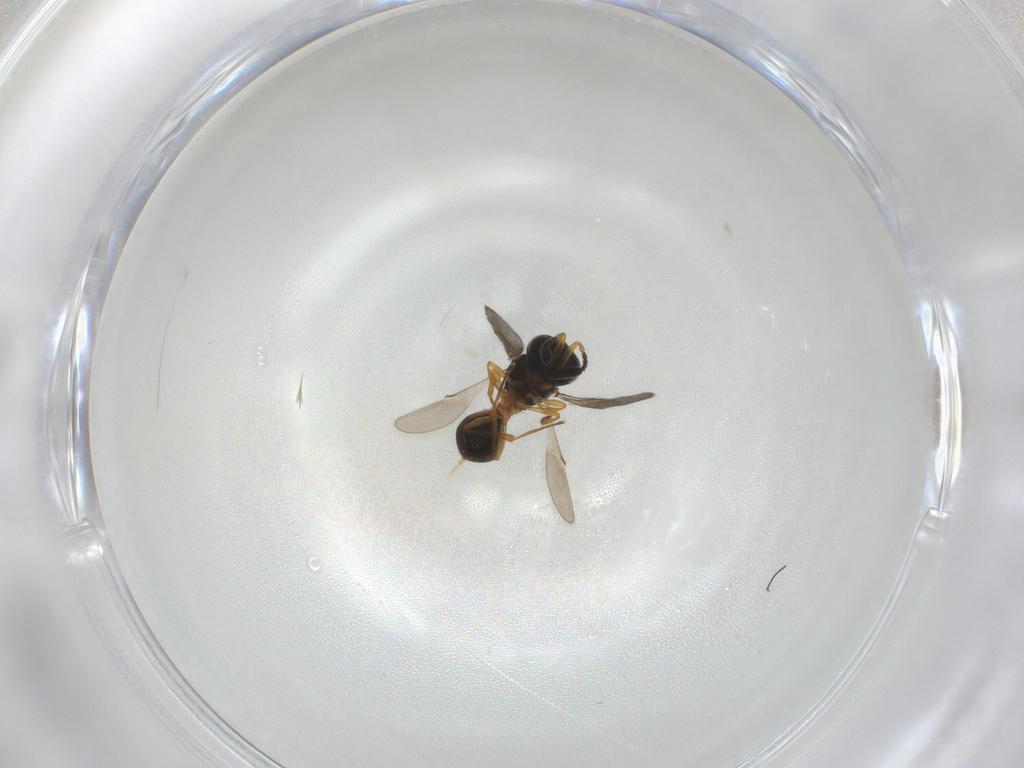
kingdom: Animalia
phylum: Arthropoda
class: Insecta
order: Hymenoptera
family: Scelionidae
